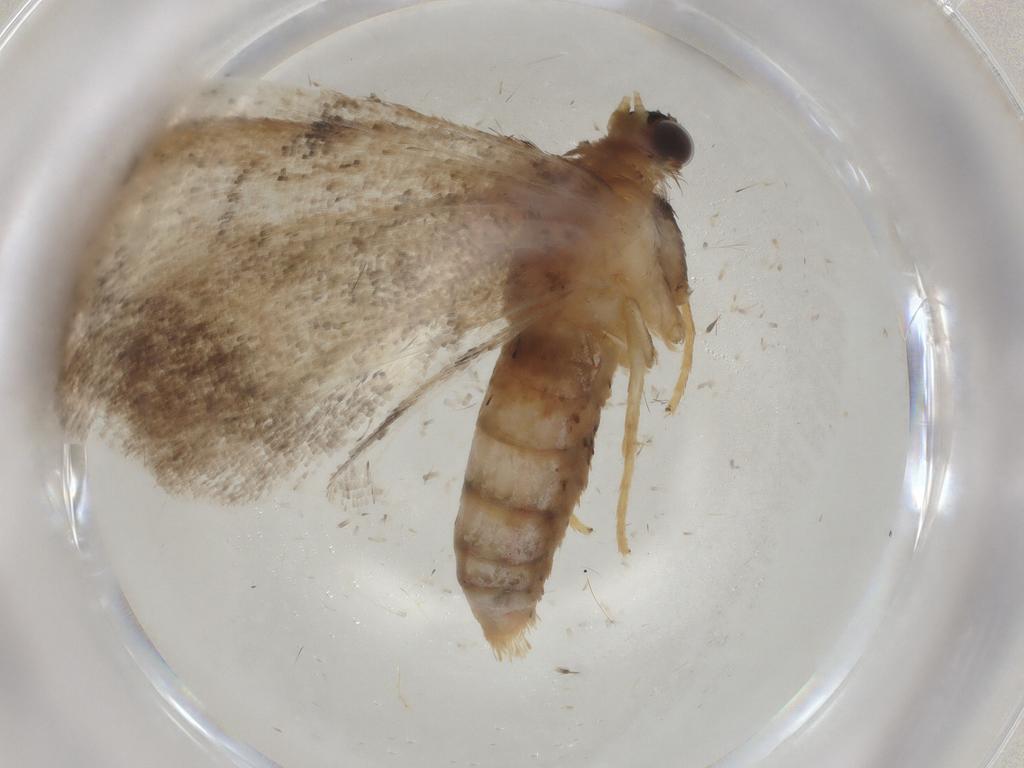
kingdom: Animalia
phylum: Arthropoda
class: Insecta
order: Lepidoptera
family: Geometridae
